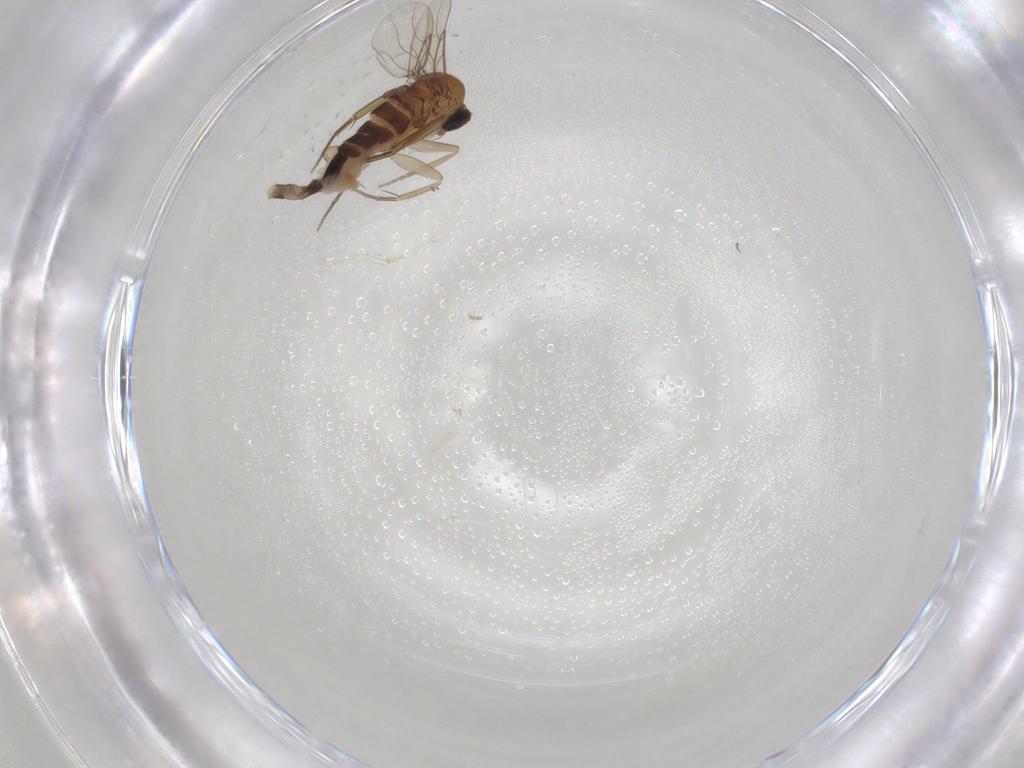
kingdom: Animalia
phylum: Arthropoda
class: Insecta
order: Diptera
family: Phoridae
